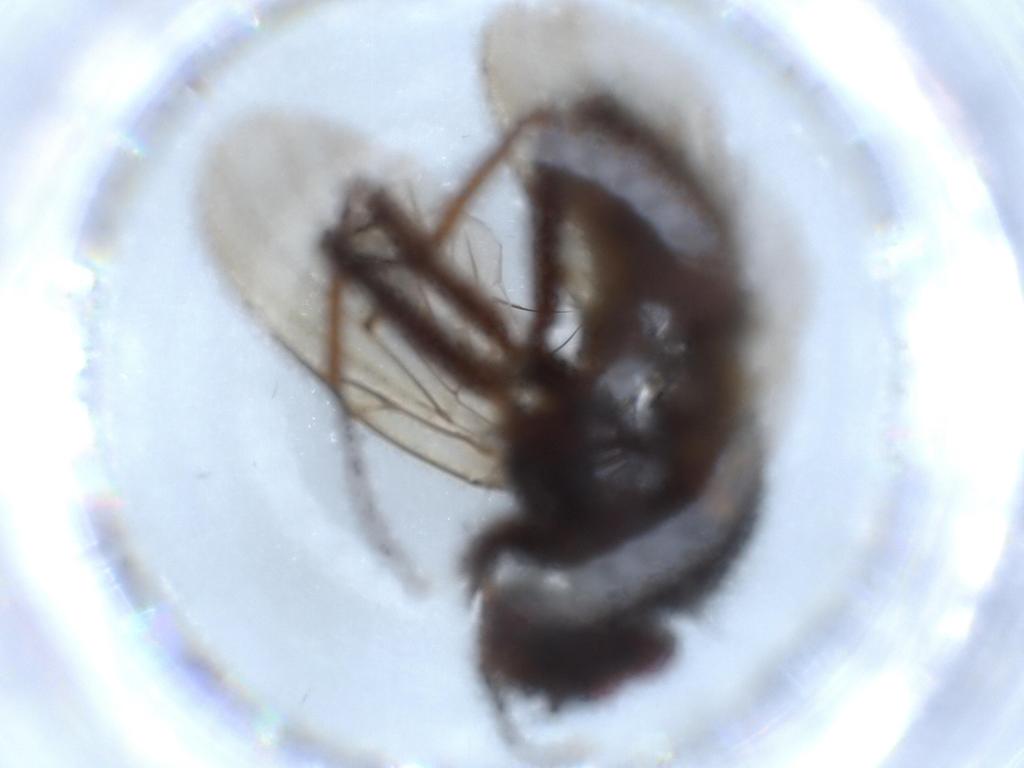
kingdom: Animalia
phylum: Arthropoda
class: Insecta
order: Diptera
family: Muscidae
